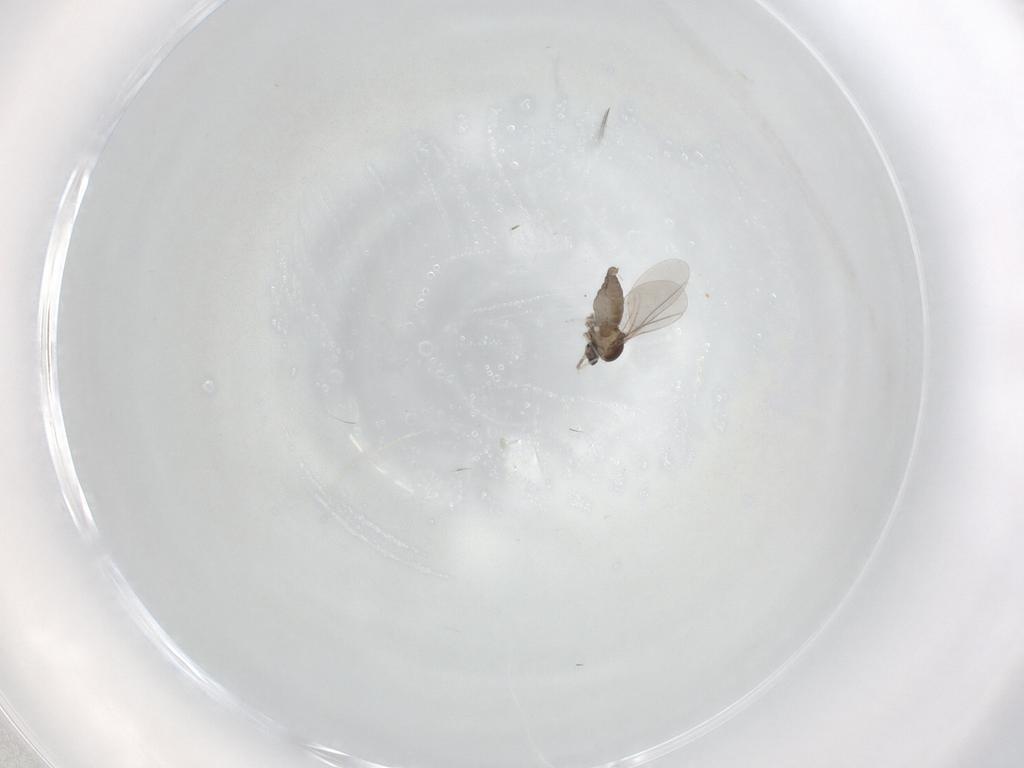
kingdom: Animalia
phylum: Arthropoda
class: Insecta
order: Diptera
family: Cecidomyiidae
